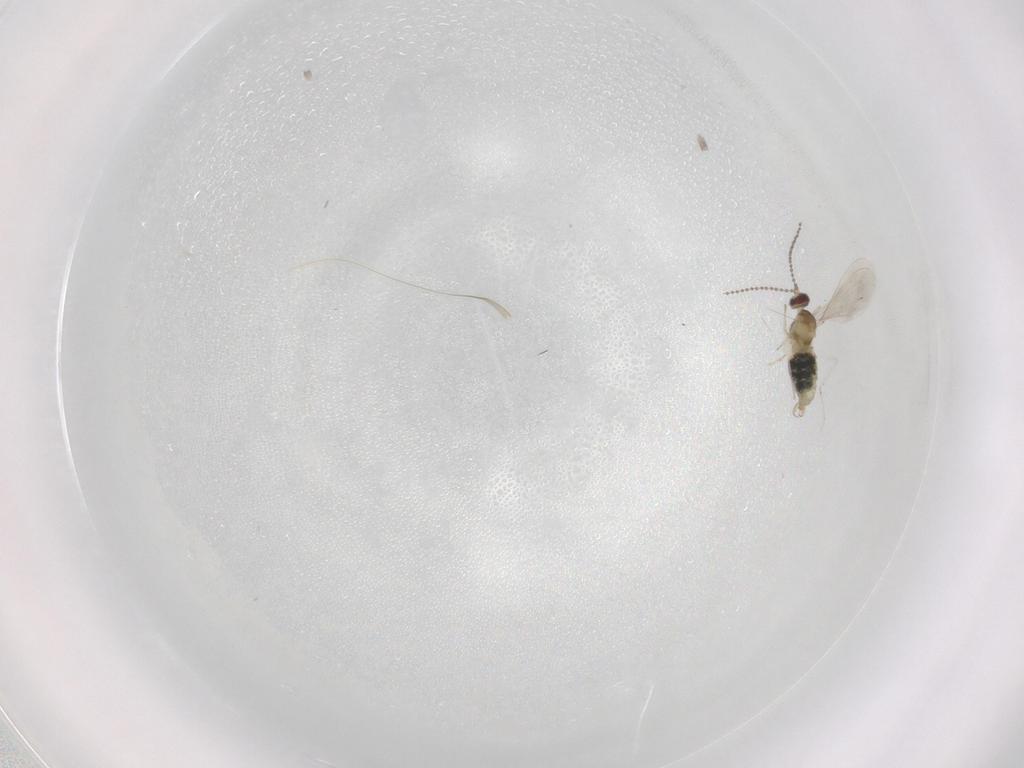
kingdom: Animalia
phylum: Arthropoda
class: Insecta
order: Diptera
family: Cecidomyiidae
